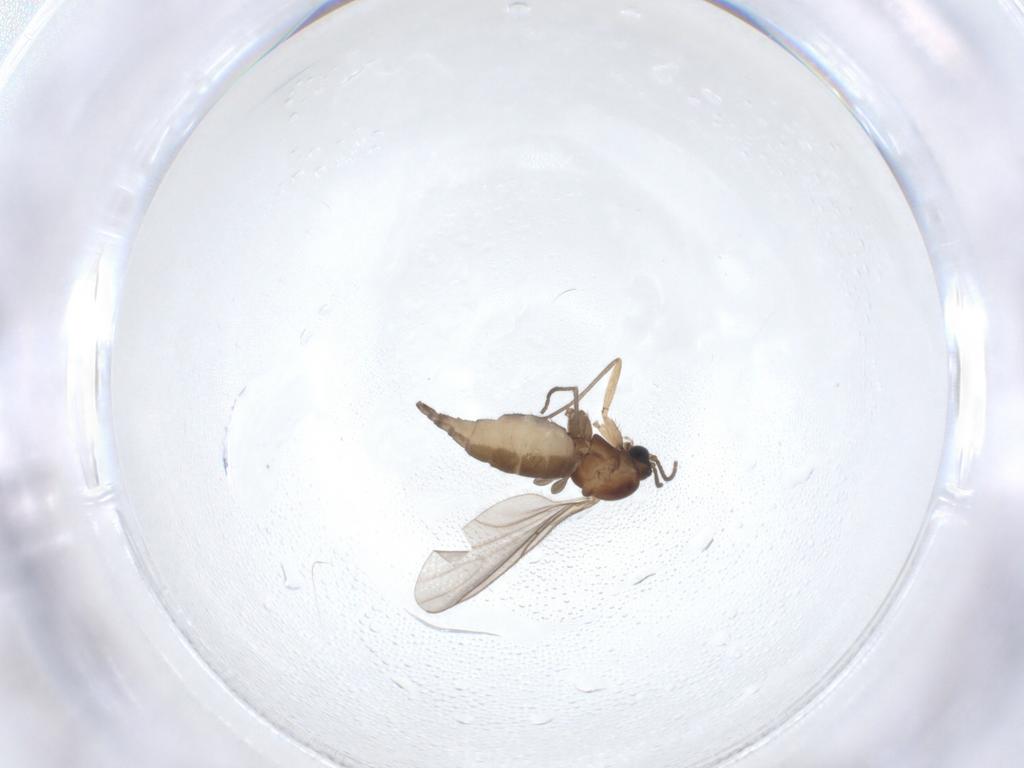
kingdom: Animalia
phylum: Arthropoda
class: Insecta
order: Diptera
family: Sciaridae
